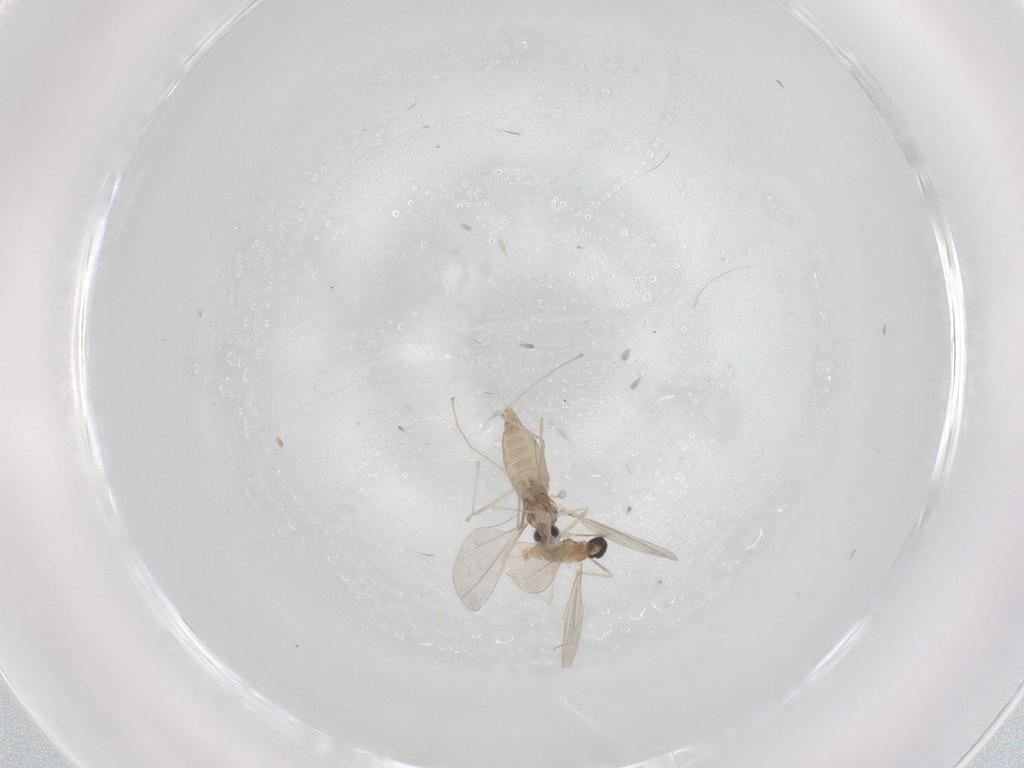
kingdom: Animalia
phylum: Arthropoda
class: Insecta
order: Diptera
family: Cecidomyiidae
